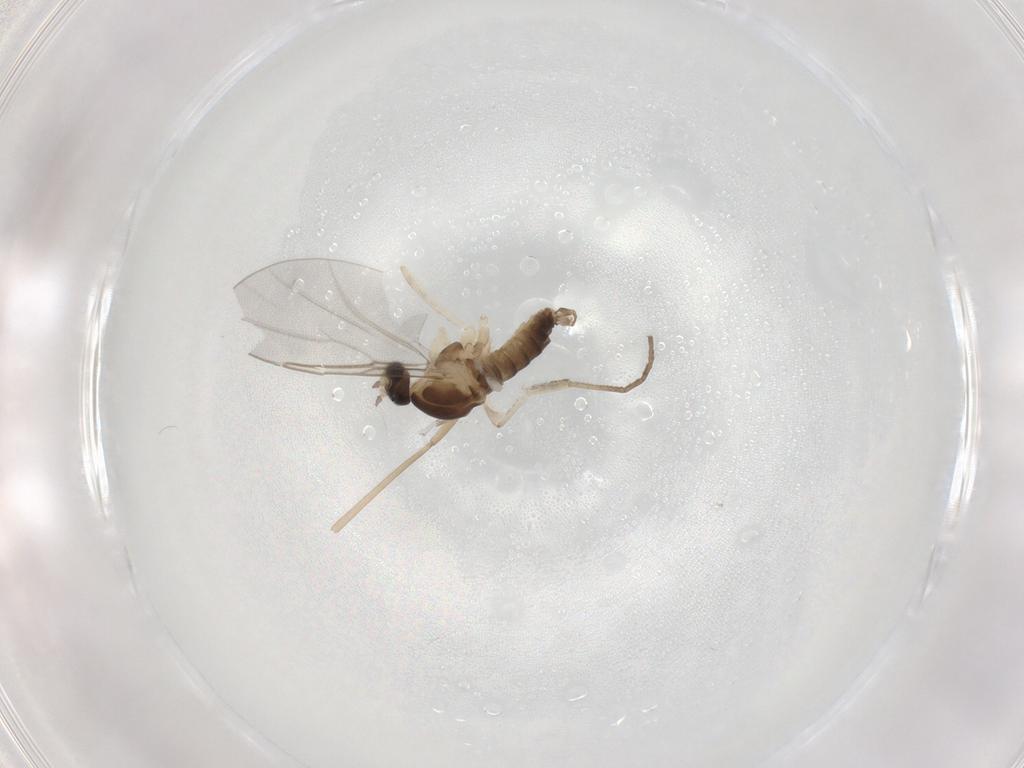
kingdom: Animalia
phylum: Arthropoda
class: Insecta
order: Diptera
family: Cecidomyiidae
